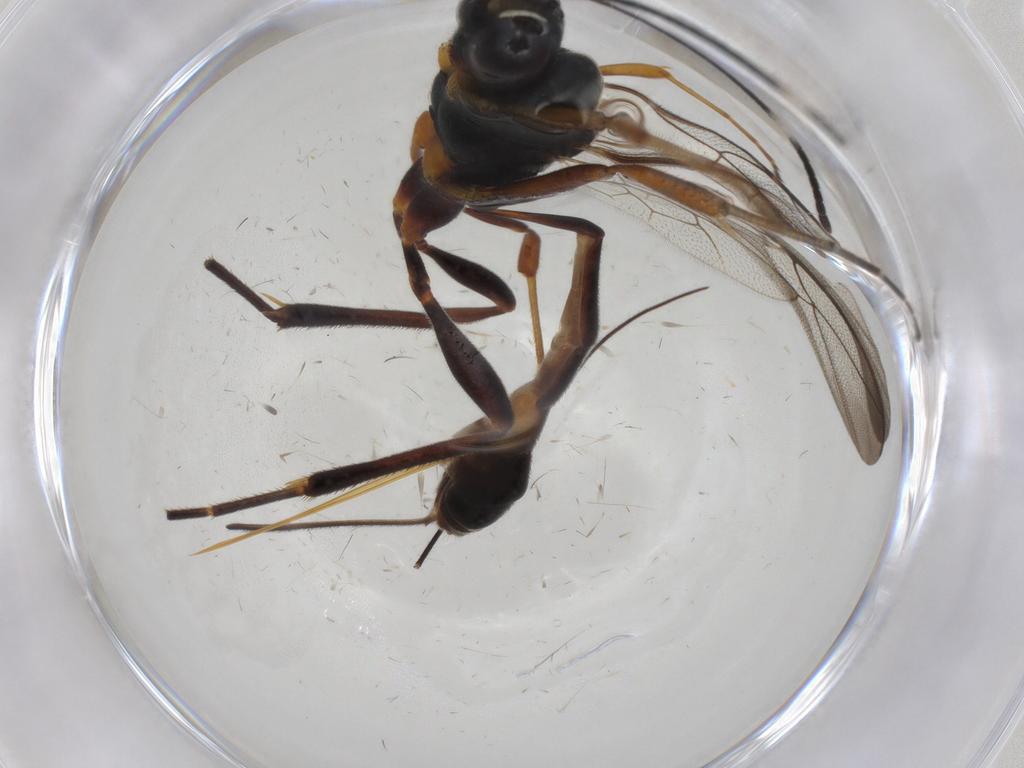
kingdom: Animalia
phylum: Arthropoda
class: Insecta
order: Hymenoptera
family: Ichneumonidae
